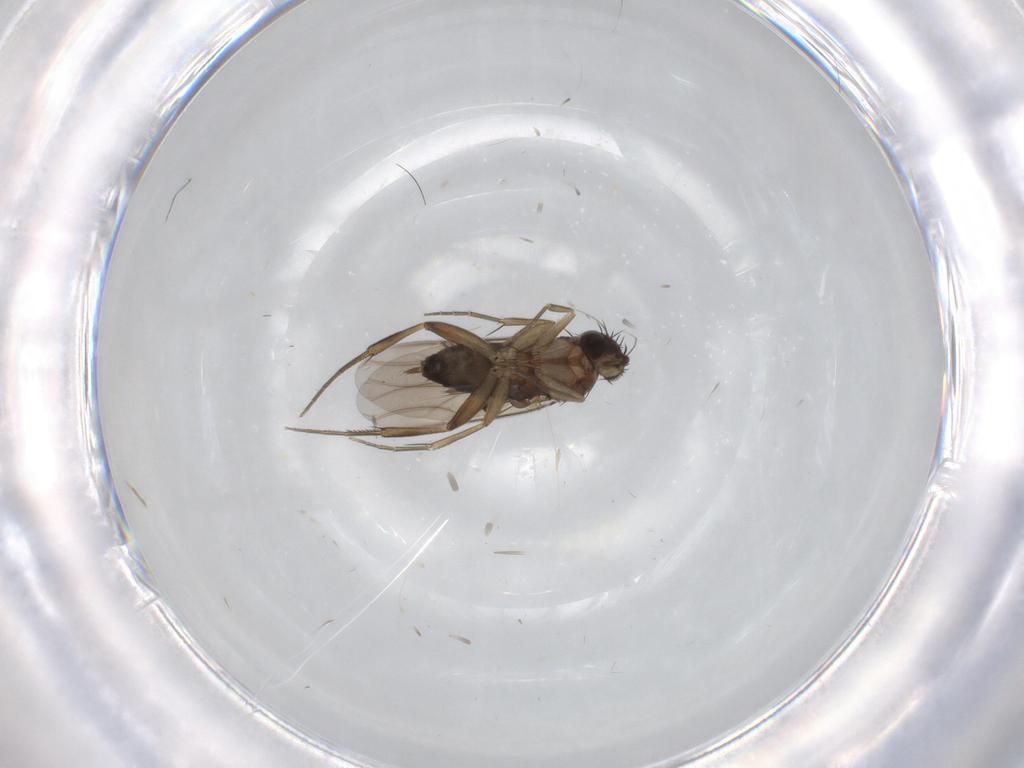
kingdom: Animalia
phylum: Arthropoda
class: Insecta
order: Diptera
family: Phoridae
